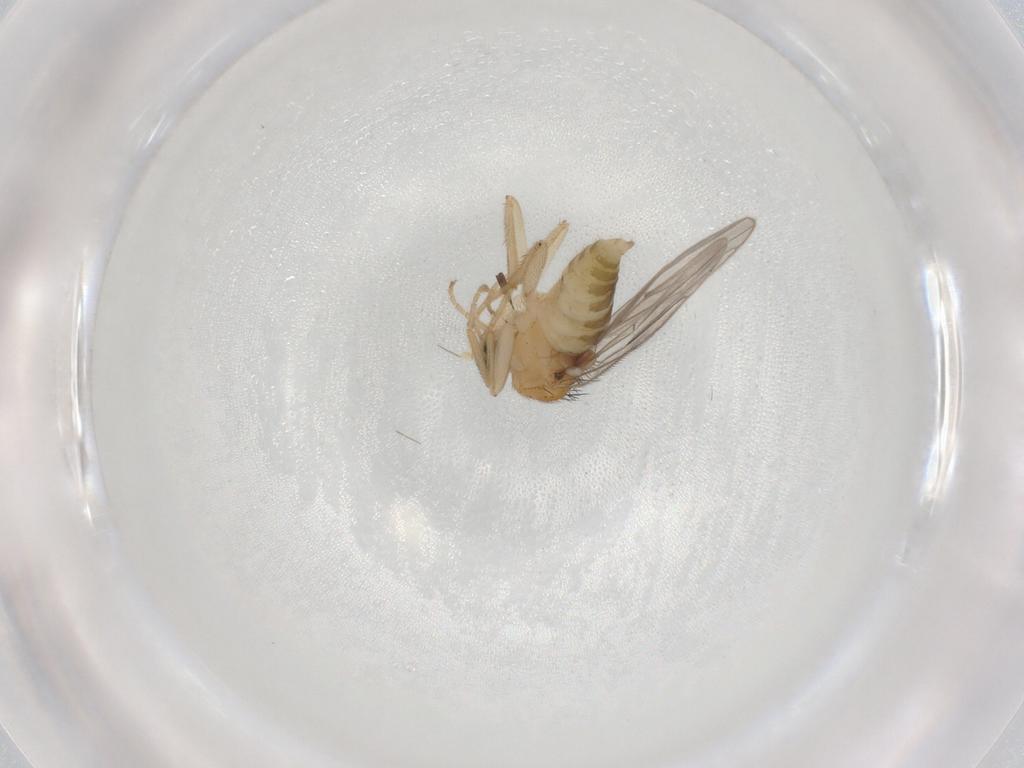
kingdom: Animalia
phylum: Arthropoda
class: Insecta
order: Diptera
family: Hybotidae
